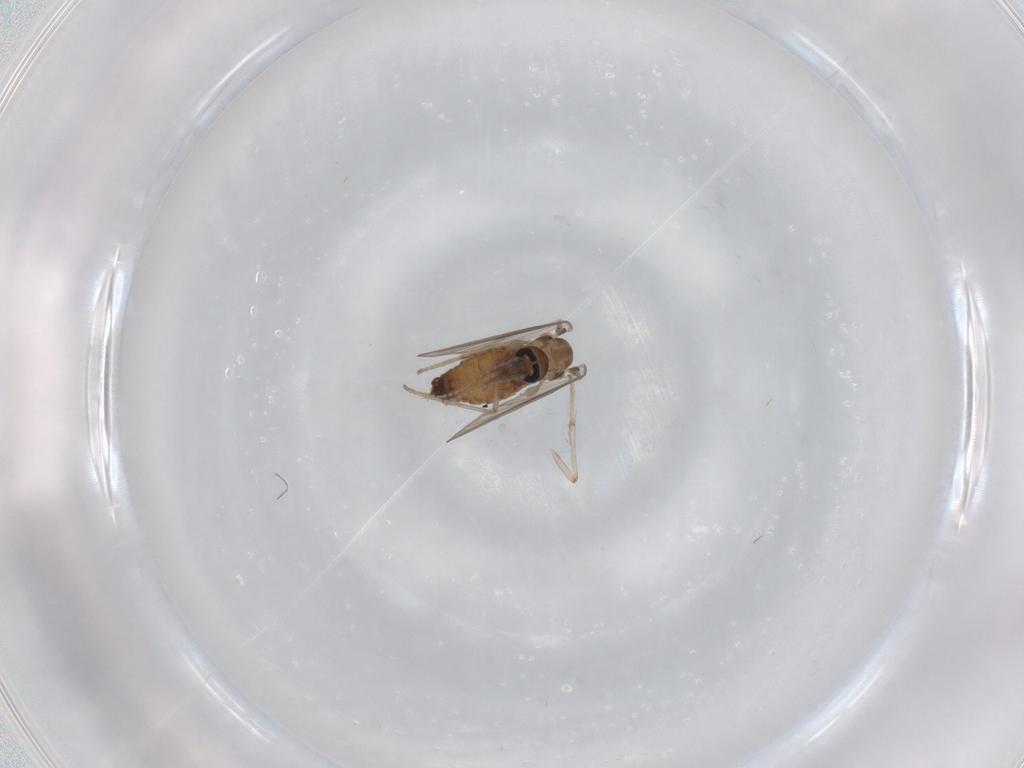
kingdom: Animalia
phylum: Arthropoda
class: Insecta
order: Diptera
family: Psychodidae
